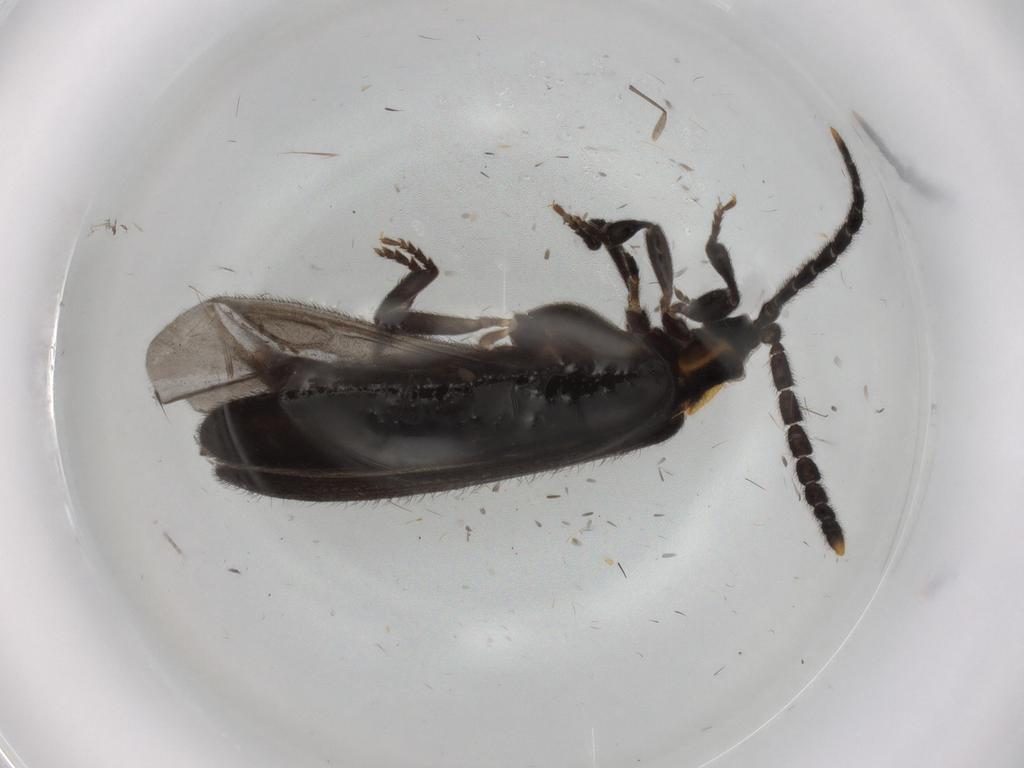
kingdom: Animalia
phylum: Arthropoda
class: Insecta
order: Coleoptera
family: Lycidae
